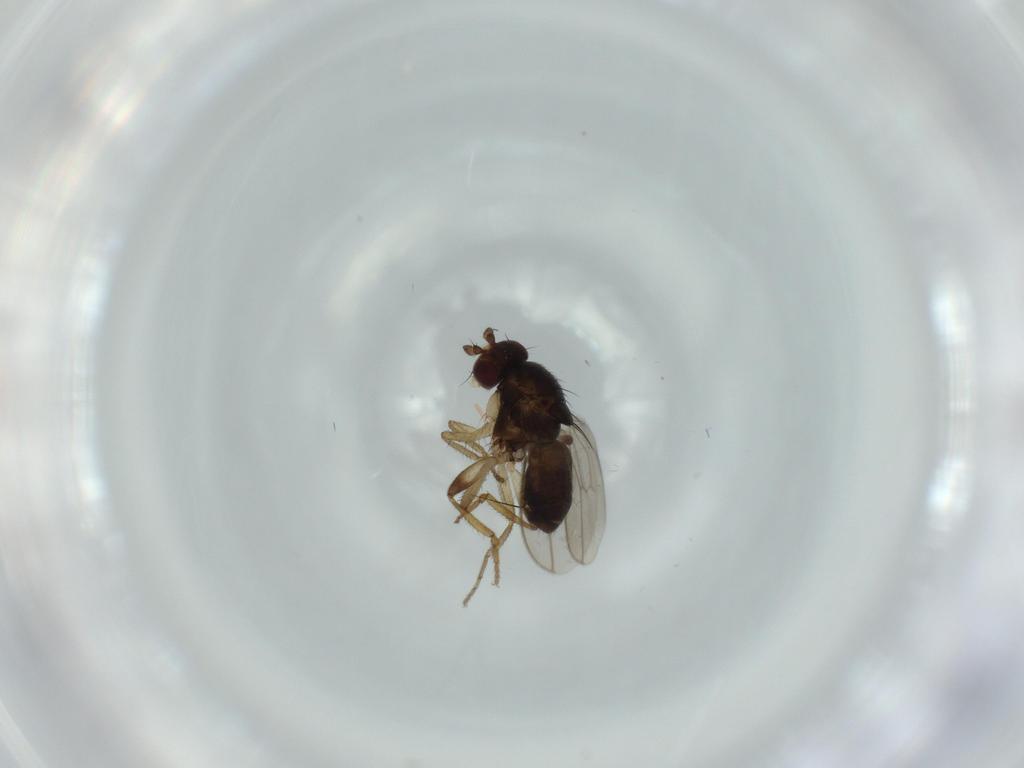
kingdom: Animalia
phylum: Arthropoda
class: Insecta
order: Diptera
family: Sphaeroceridae
